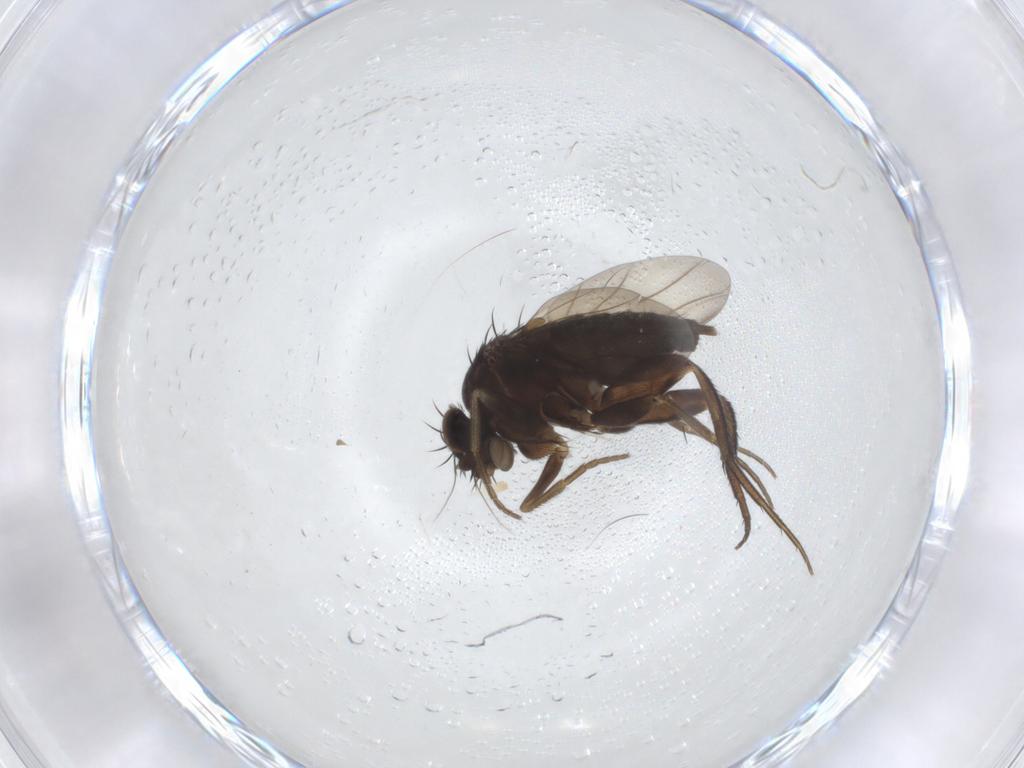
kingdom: Animalia
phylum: Arthropoda
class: Insecta
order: Diptera
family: Phoridae
